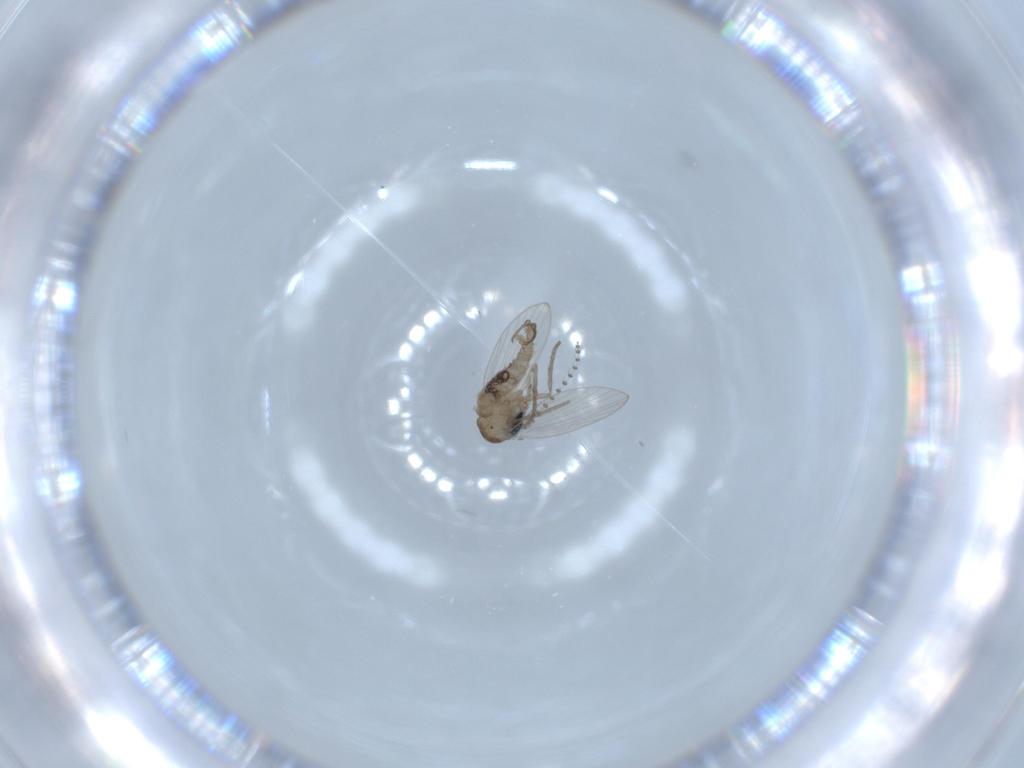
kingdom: Animalia
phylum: Arthropoda
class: Insecta
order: Diptera
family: Psychodidae
